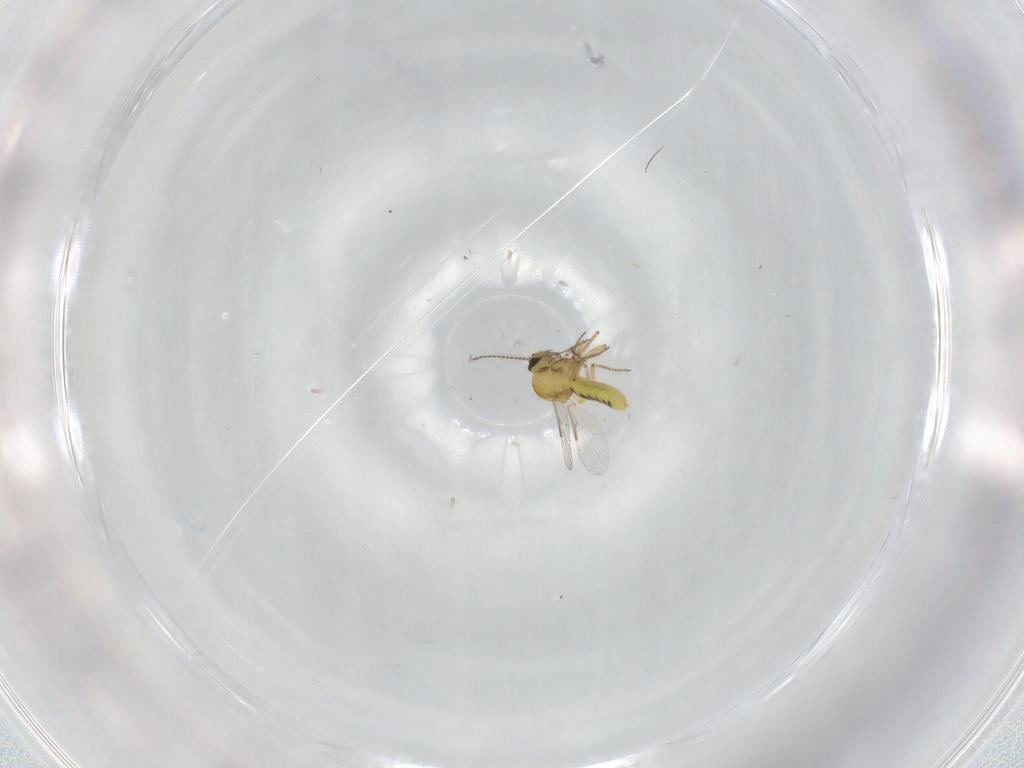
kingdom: Animalia
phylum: Arthropoda
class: Insecta
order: Diptera
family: Ceratopogonidae
